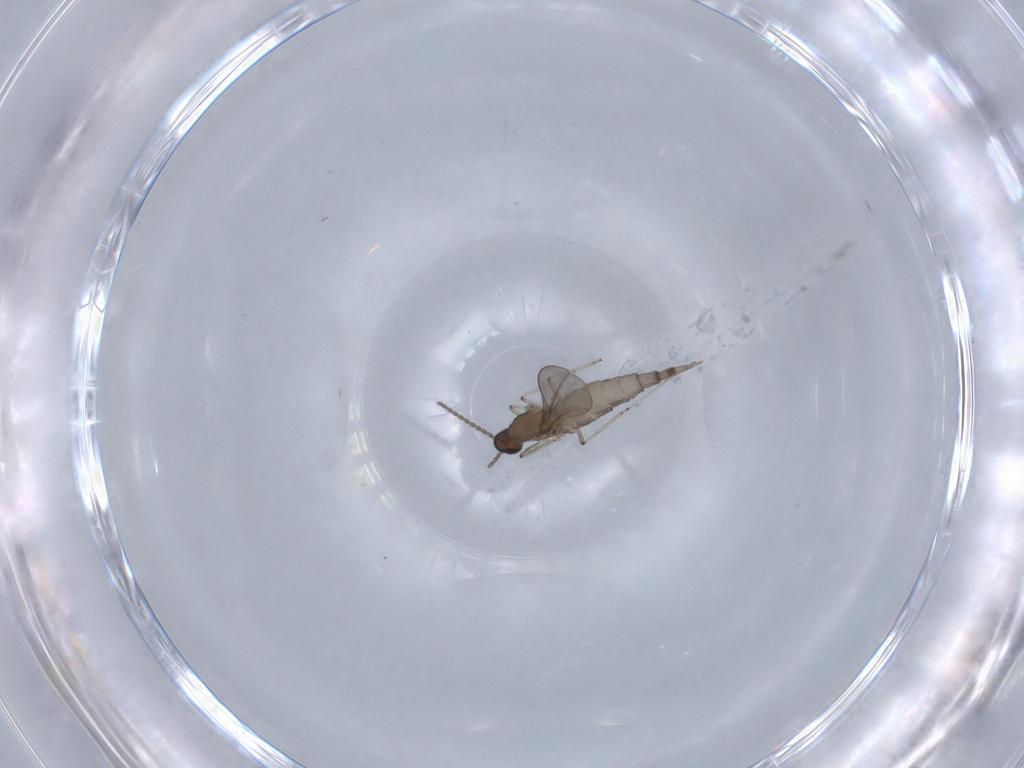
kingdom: Animalia
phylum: Arthropoda
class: Insecta
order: Diptera
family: Cecidomyiidae
